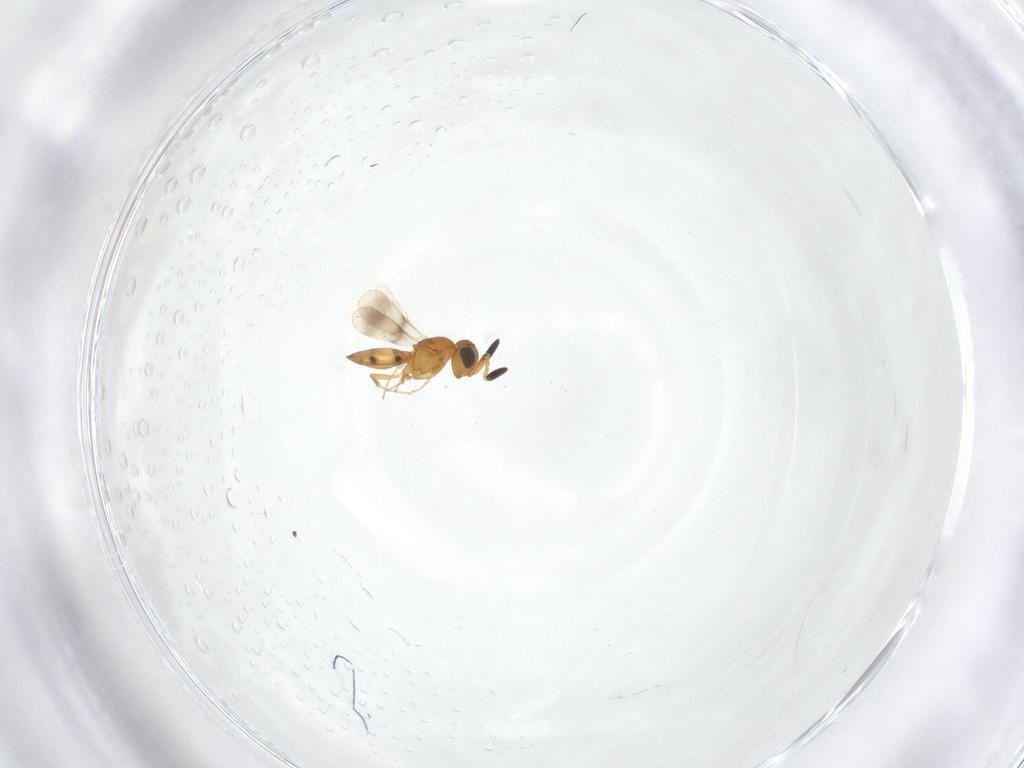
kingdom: Animalia
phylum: Arthropoda
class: Insecta
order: Hymenoptera
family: Scelionidae
